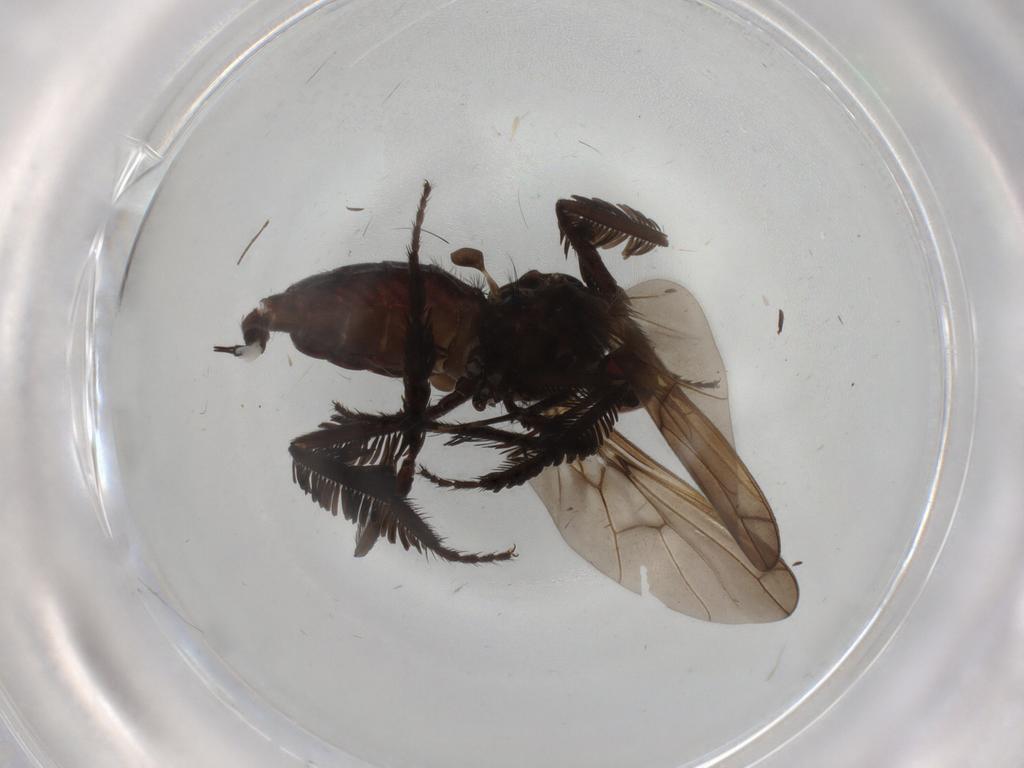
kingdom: Animalia
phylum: Arthropoda
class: Insecta
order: Diptera
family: Empididae
